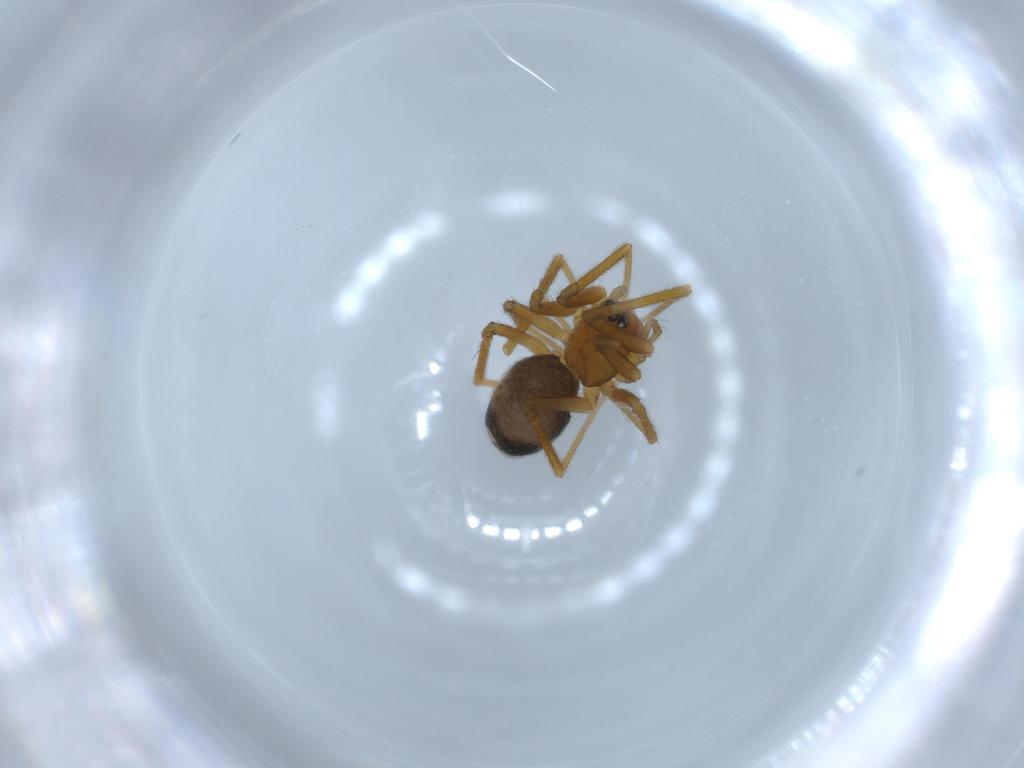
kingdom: Animalia
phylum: Arthropoda
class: Arachnida
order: Araneae
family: Linyphiidae
